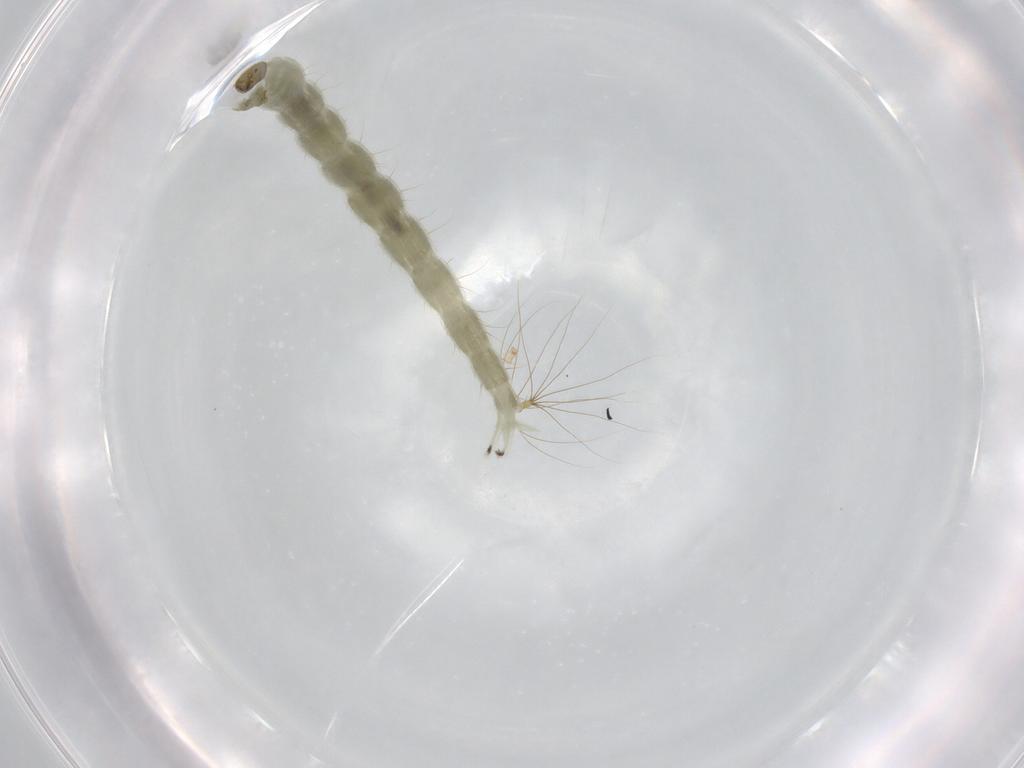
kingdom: Animalia
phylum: Arthropoda
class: Insecta
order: Diptera
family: Chironomidae
